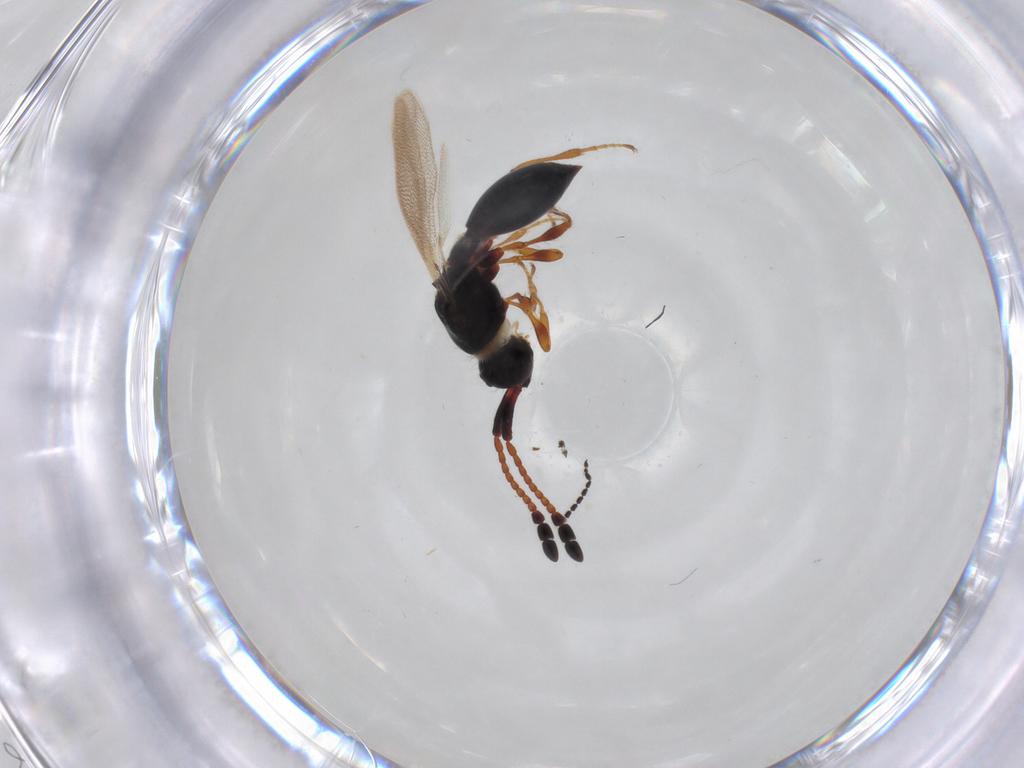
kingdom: Animalia
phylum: Arthropoda
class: Insecta
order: Hymenoptera
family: Diapriidae
